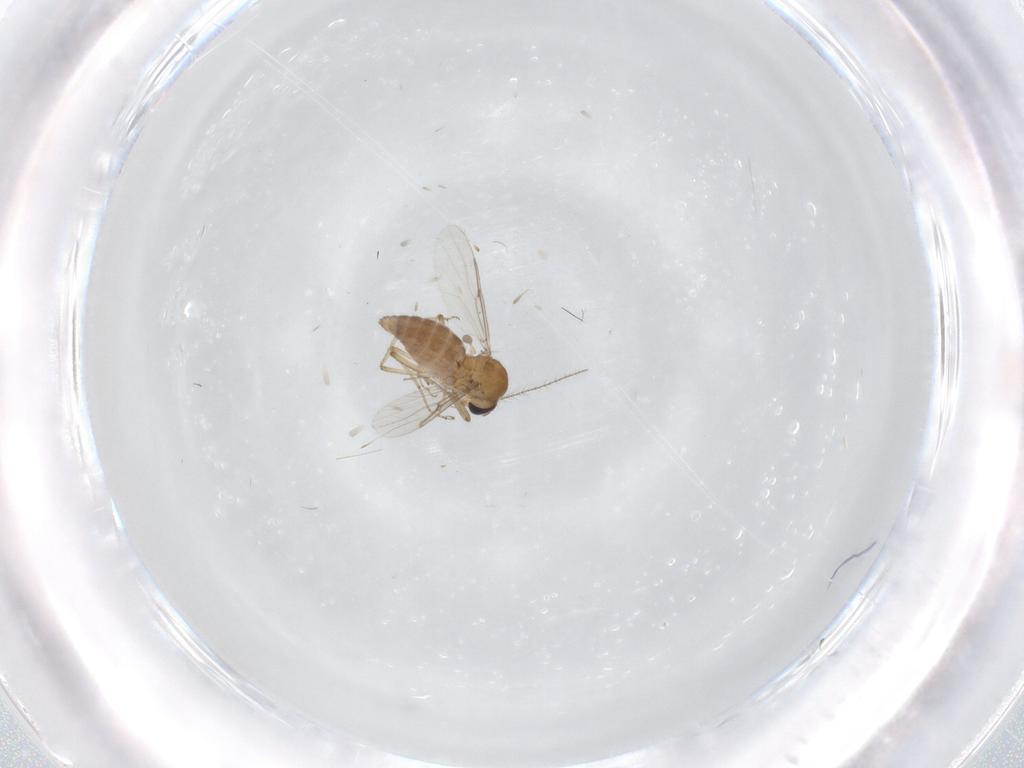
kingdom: Animalia
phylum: Arthropoda
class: Insecta
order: Diptera
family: Ceratopogonidae
